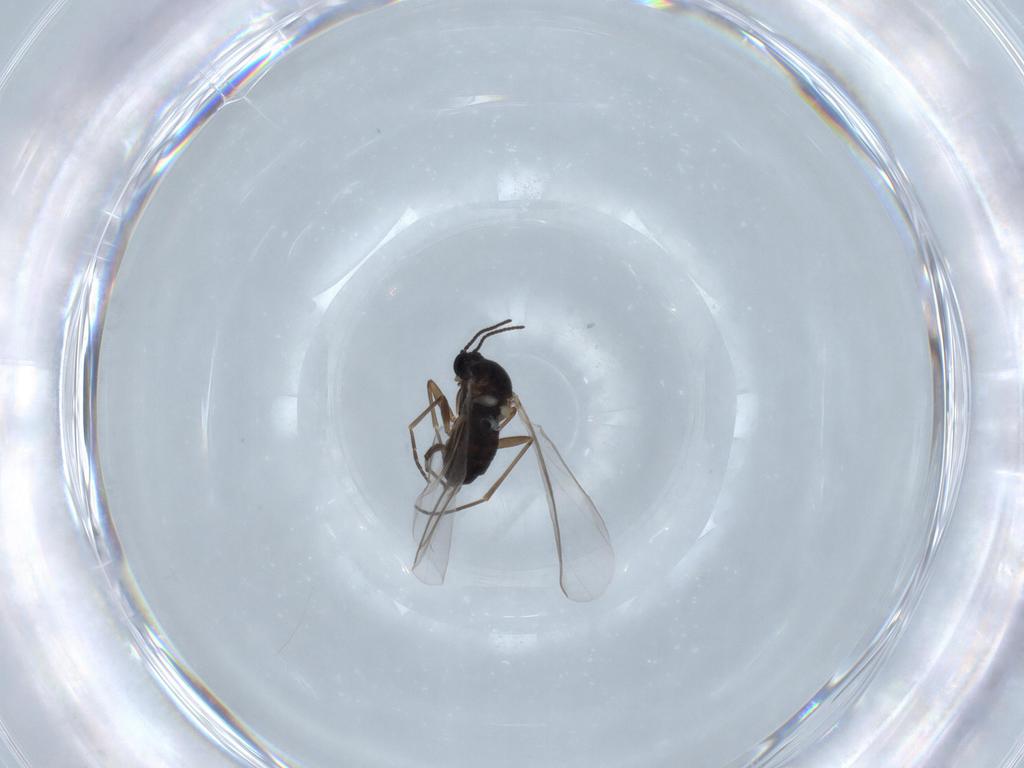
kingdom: Animalia
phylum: Arthropoda
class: Insecta
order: Diptera
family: Sciaridae
